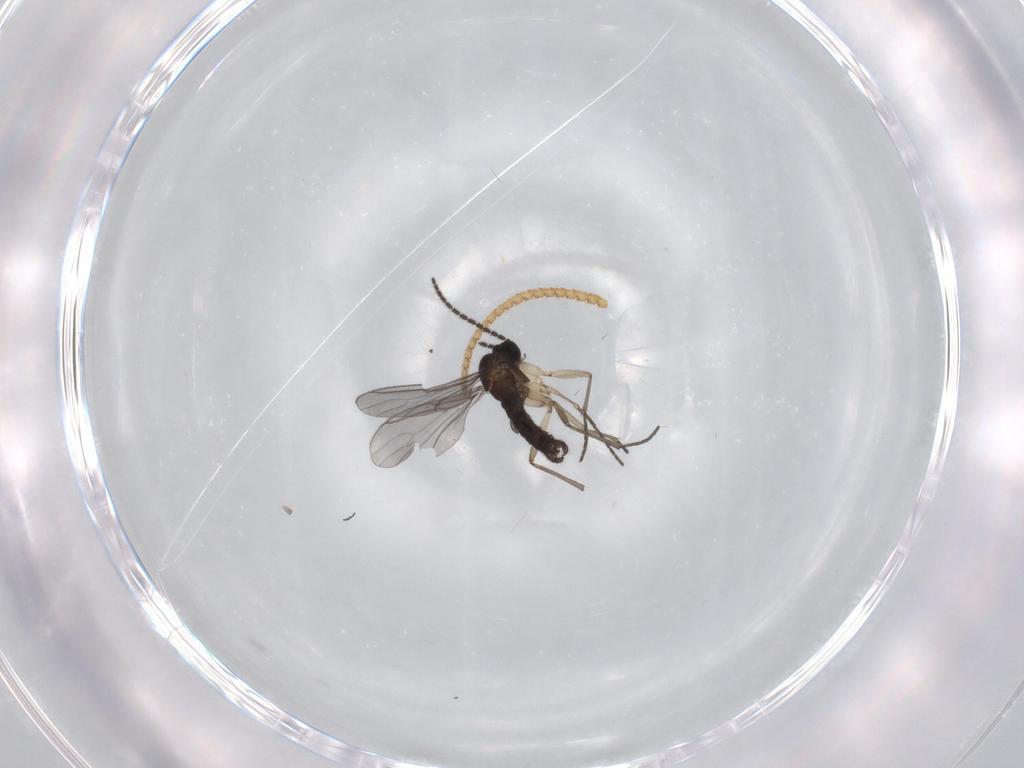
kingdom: Animalia
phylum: Arthropoda
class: Insecta
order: Diptera
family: Sciaridae
